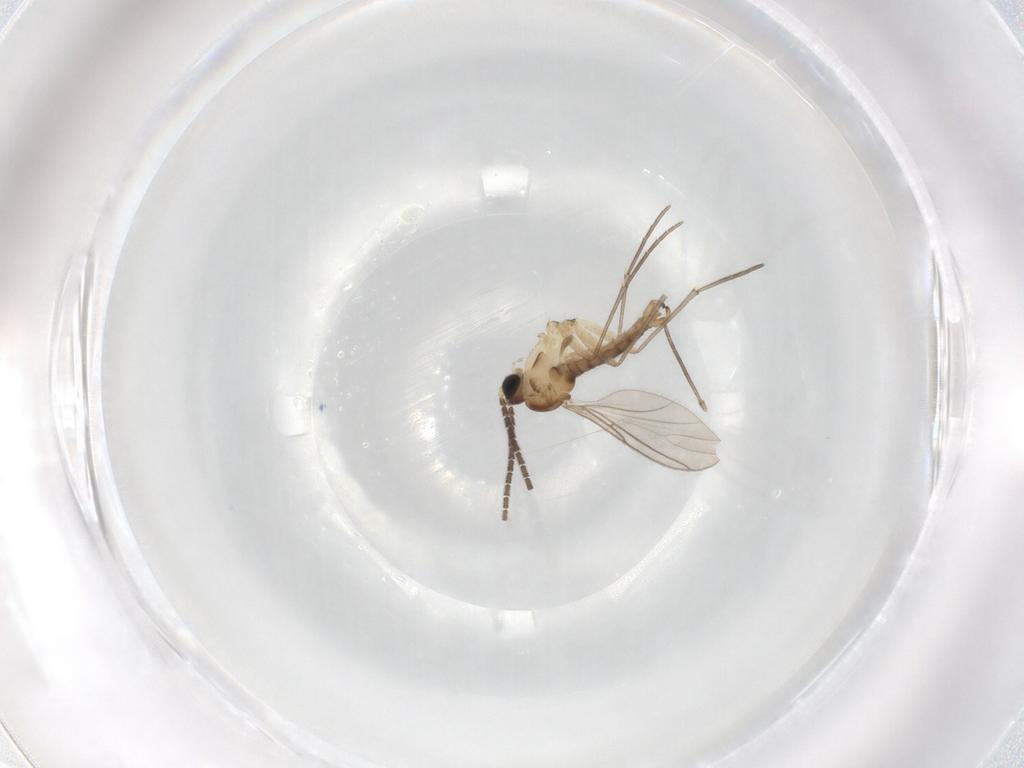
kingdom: Animalia
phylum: Arthropoda
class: Insecta
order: Diptera
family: Sciaridae
